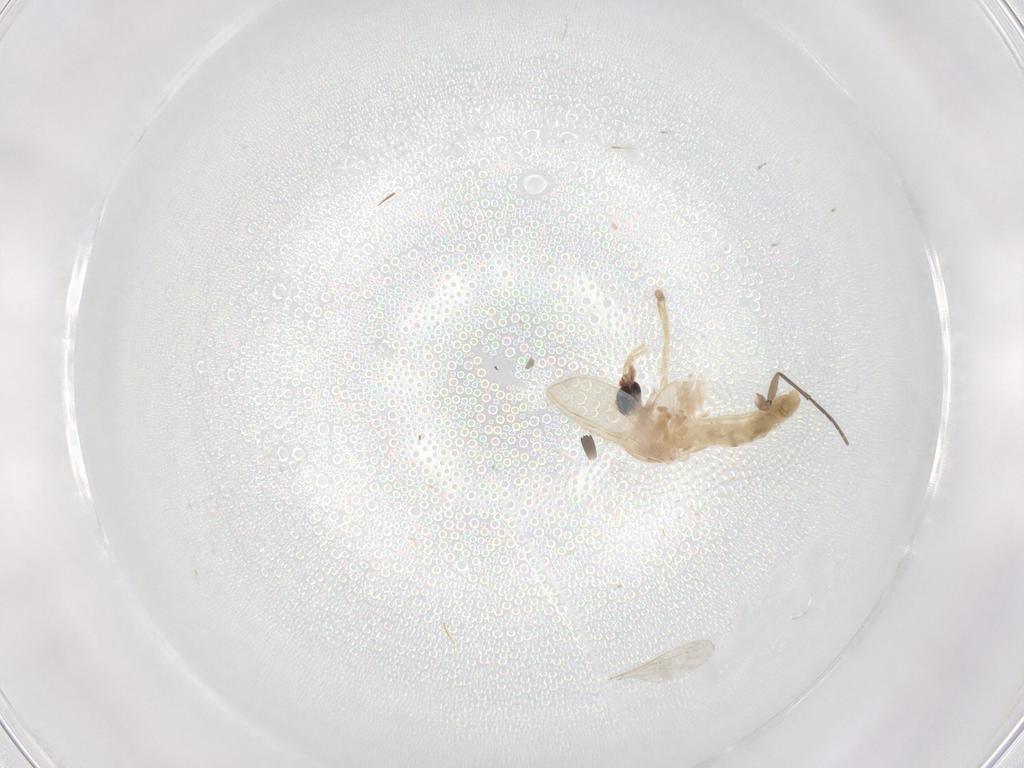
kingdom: Animalia
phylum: Arthropoda
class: Insecta
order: Diptera
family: Chironomidae
